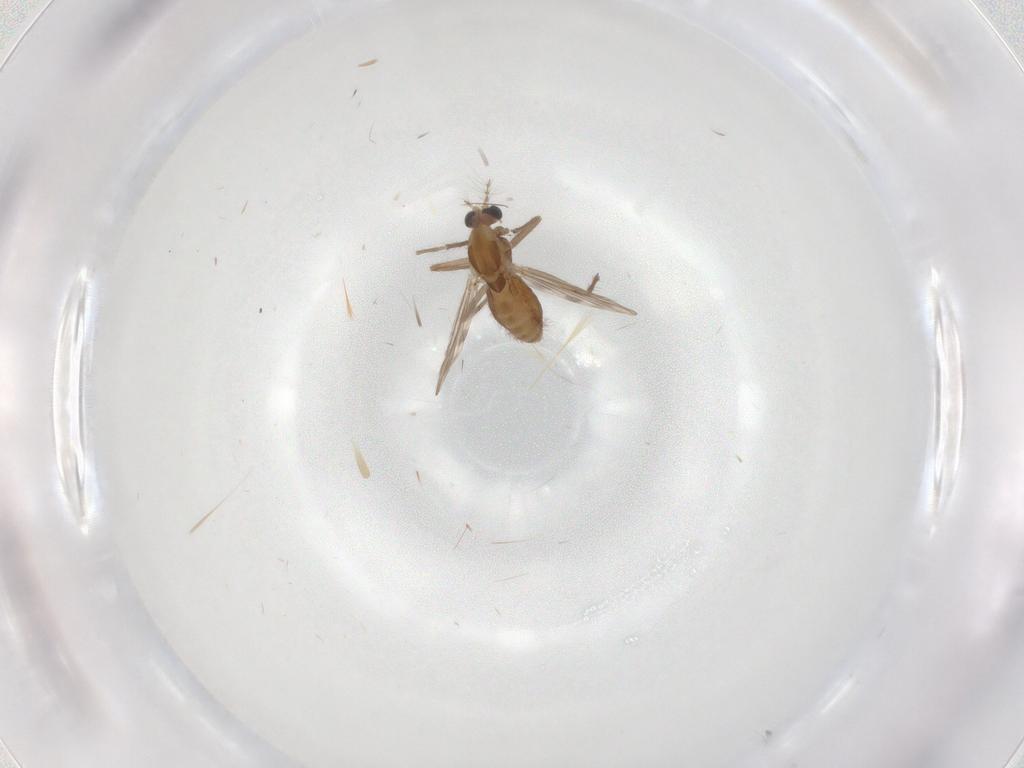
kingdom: Animalia
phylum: Arthropoda
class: Insecta
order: Diptera
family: Chironomidae
